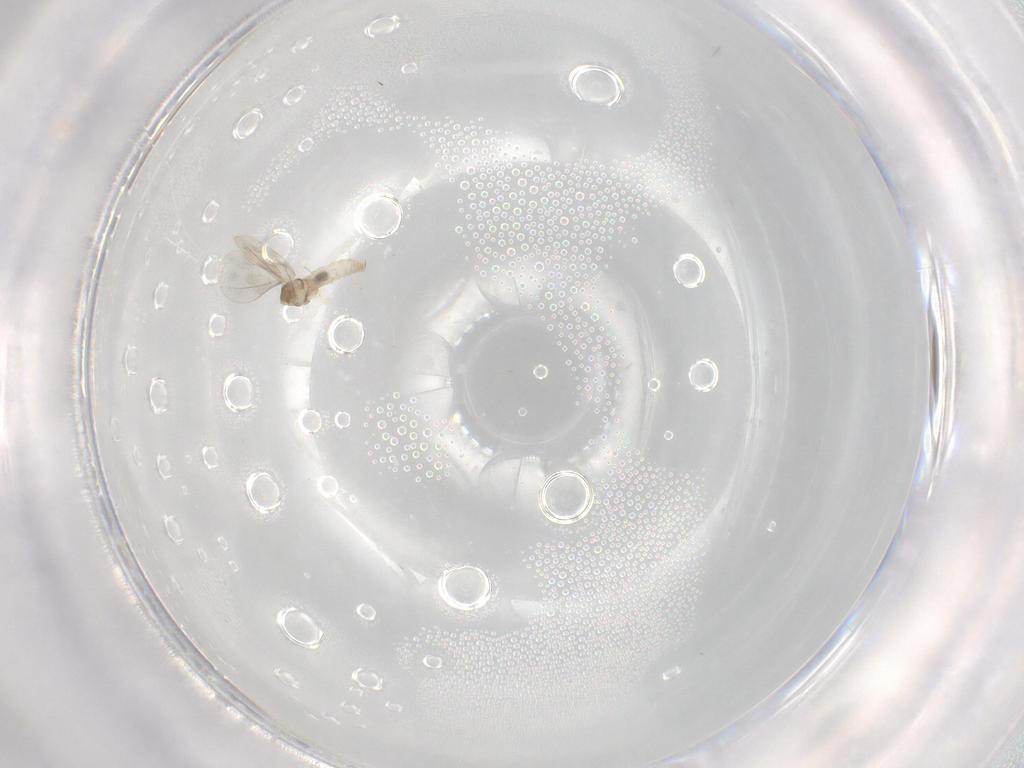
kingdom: Animalia
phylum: Arthropoda
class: Insecta
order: Diptera
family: Cecidomyiidae
